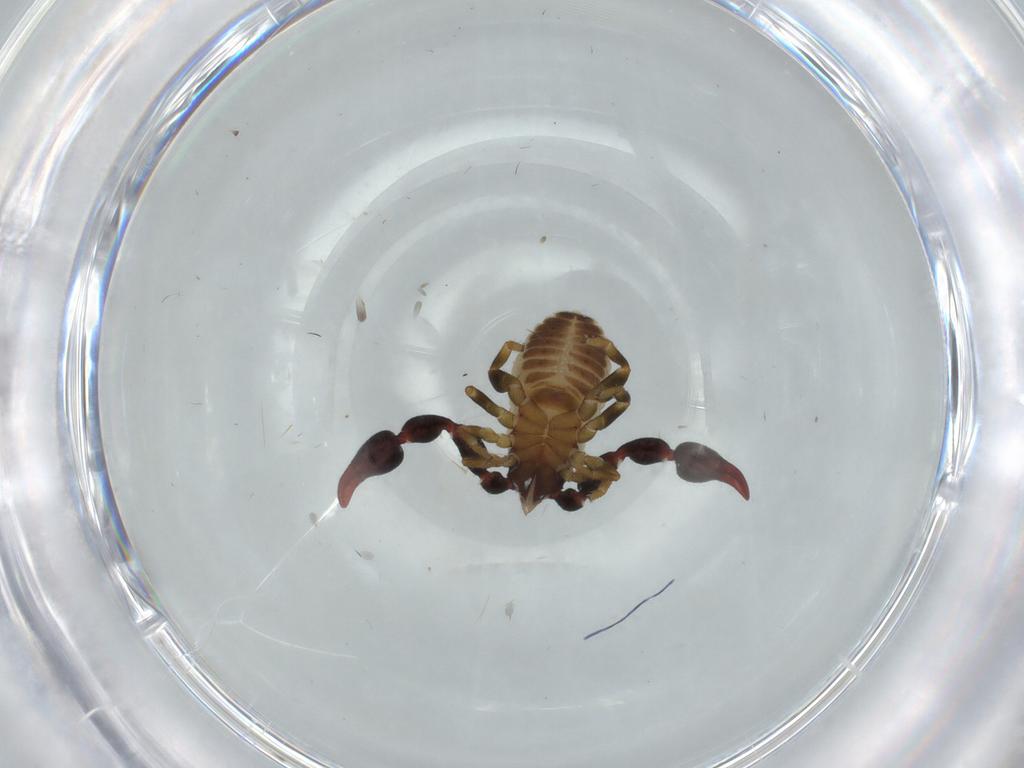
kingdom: Animalia
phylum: Arthropoda
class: Arachnida
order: Pseudoscorpiones
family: Chernetidae
